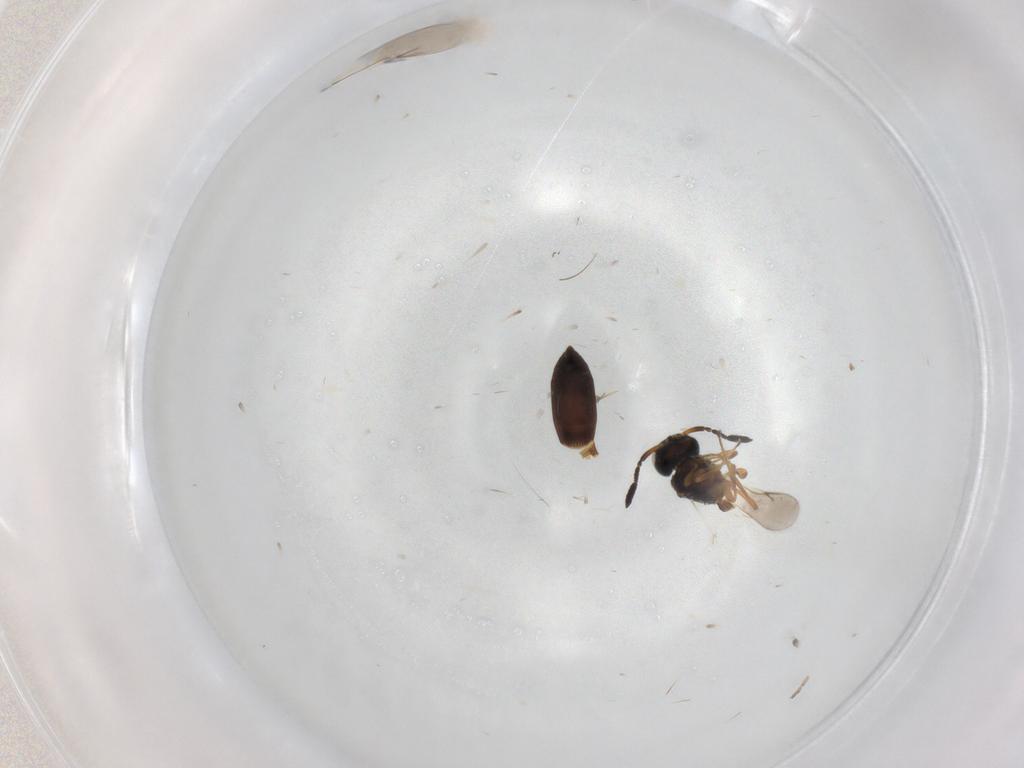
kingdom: Animalia
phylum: Arthropoda
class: Insecta
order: Hymenoptera
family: Scelionidae
